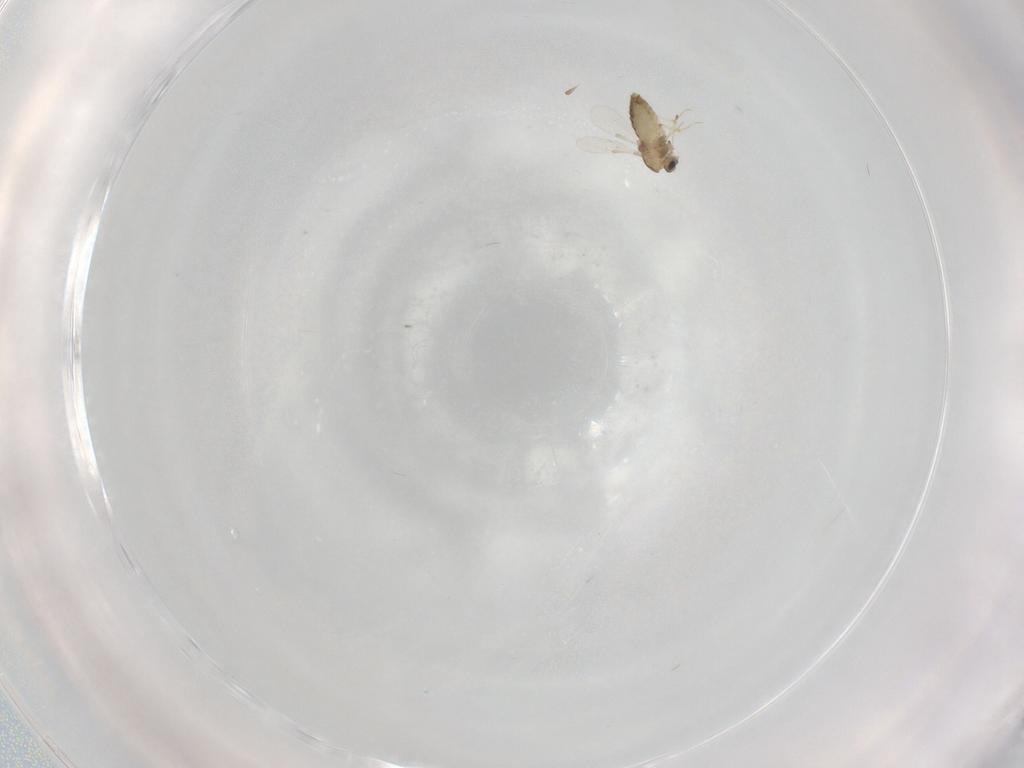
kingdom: Animalia
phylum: Arthropoda
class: Insecta
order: Diptera
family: Chironomidae
